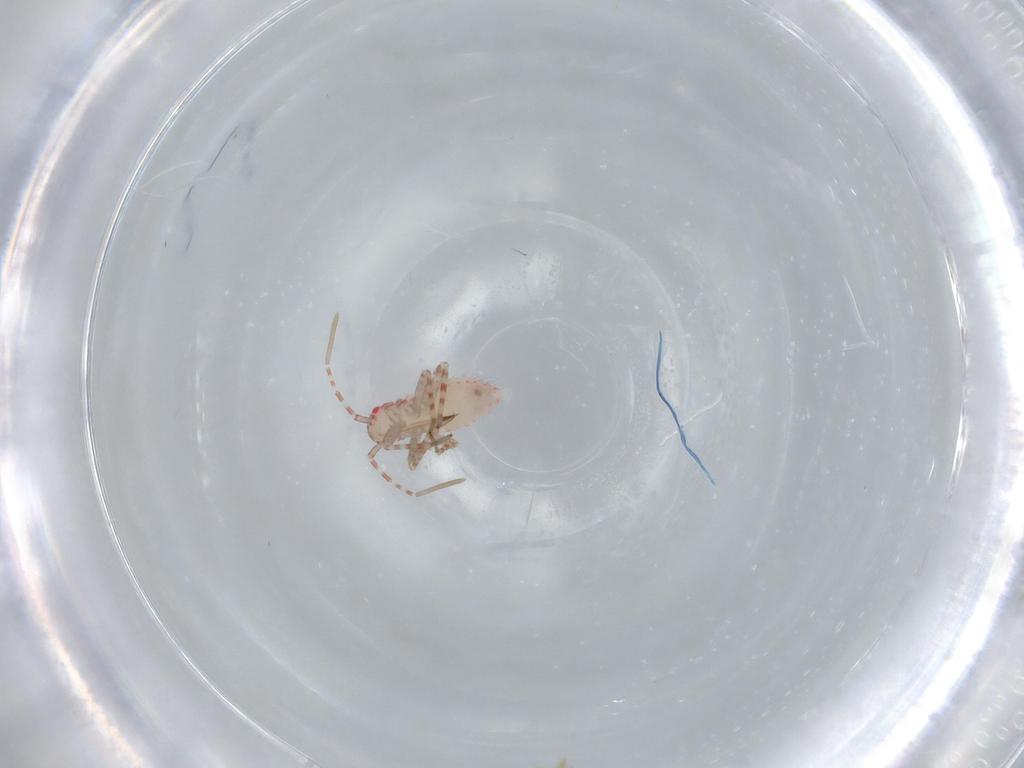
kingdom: Animalia
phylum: Arthropoda
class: Insecta
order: Hemiptera
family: Miridae
